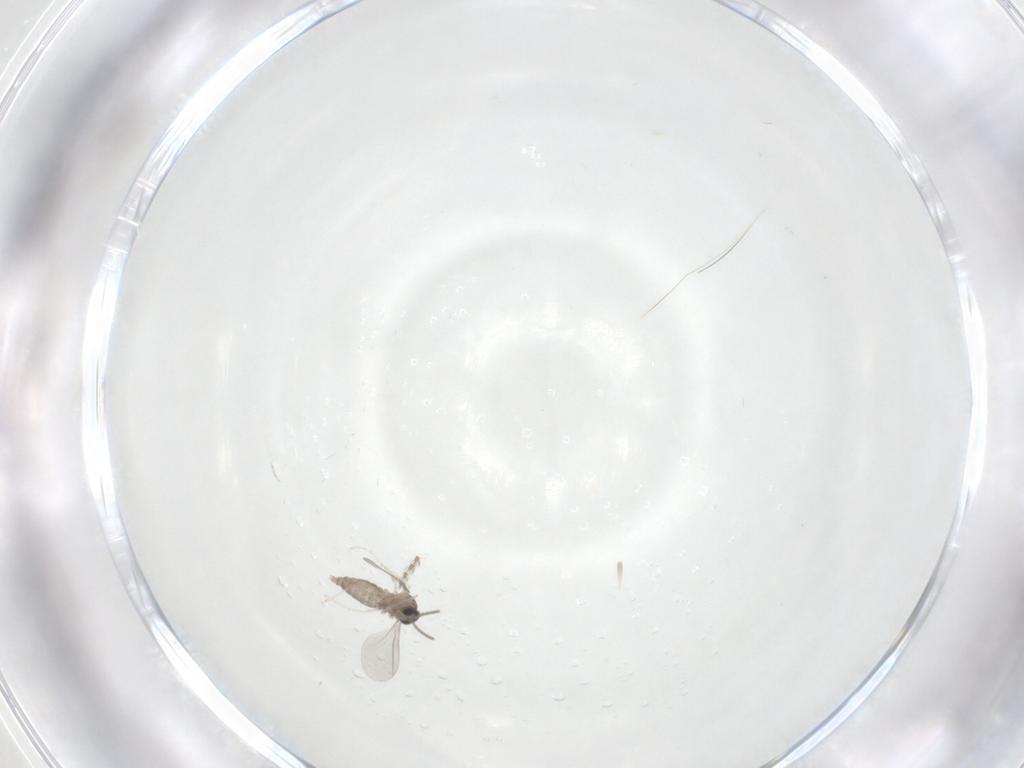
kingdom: Animalia
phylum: Arthropoda
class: Insecta
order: Diptera
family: Cecidomyiidae
